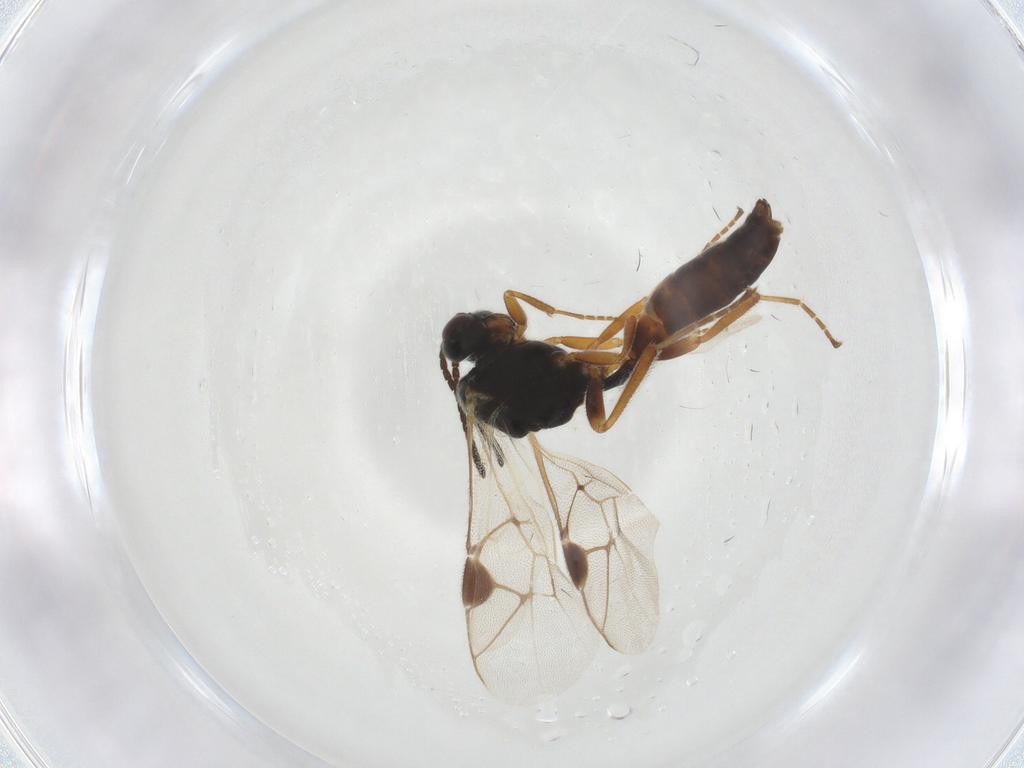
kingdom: Animalia
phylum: Arthropoda
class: Insecta
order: Hymenoptera
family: Ichneumonidae
